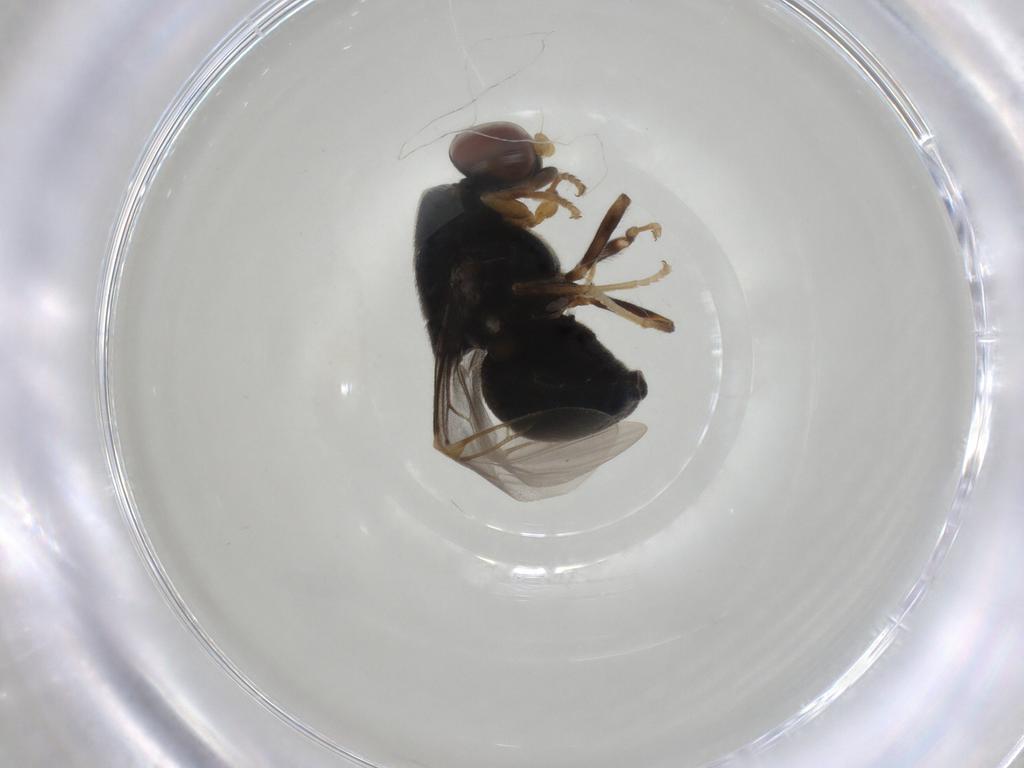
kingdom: Animalia
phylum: Arthropoda
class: Insecta
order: Diptera
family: Stratiomyidae
